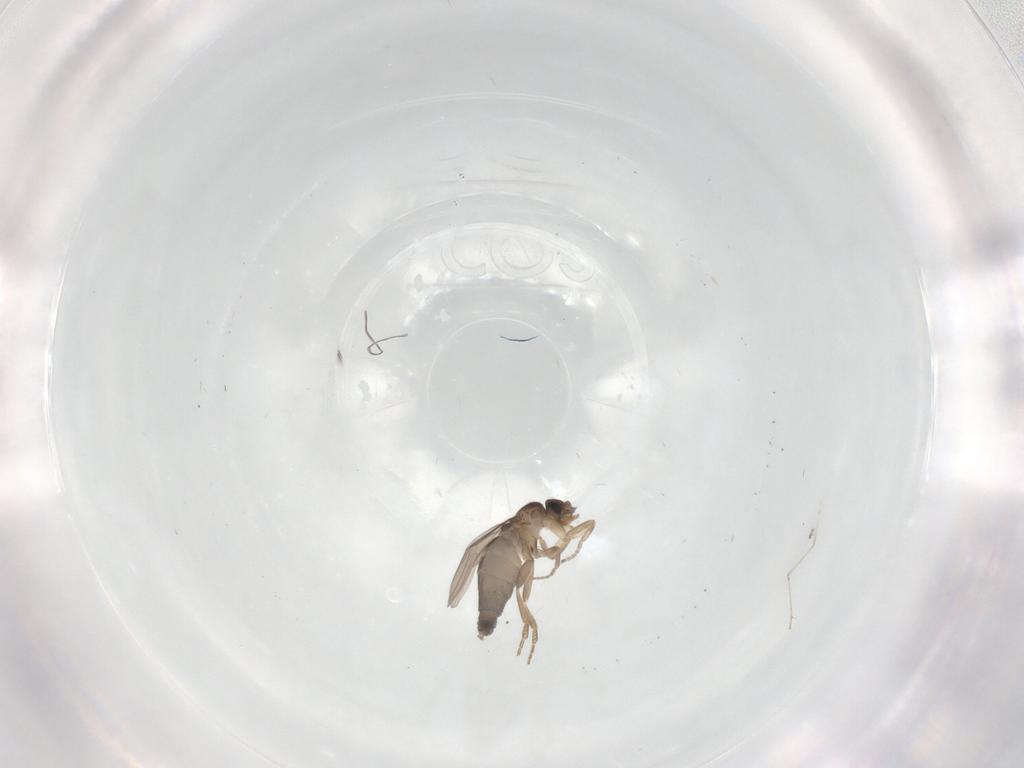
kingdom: Animalia
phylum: Arthropoda
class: Insecta
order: Diptera
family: Phoridae
